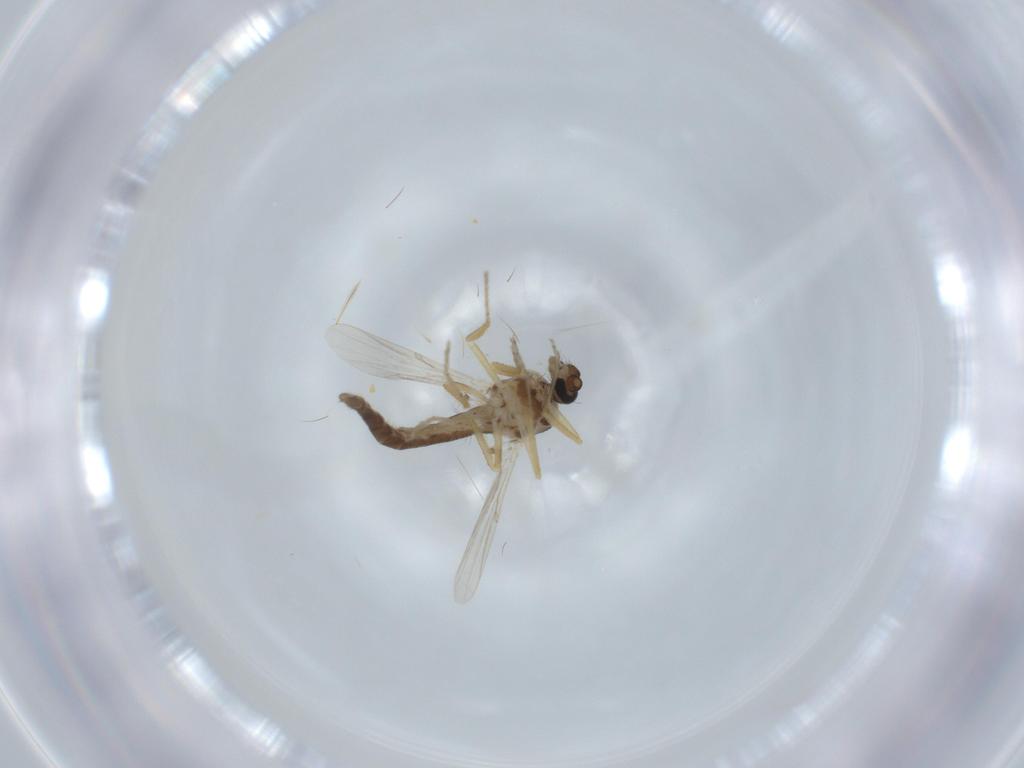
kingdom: Animalia
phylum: Arthropoda
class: Insecta
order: Diptera
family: Ceratopogonidae
